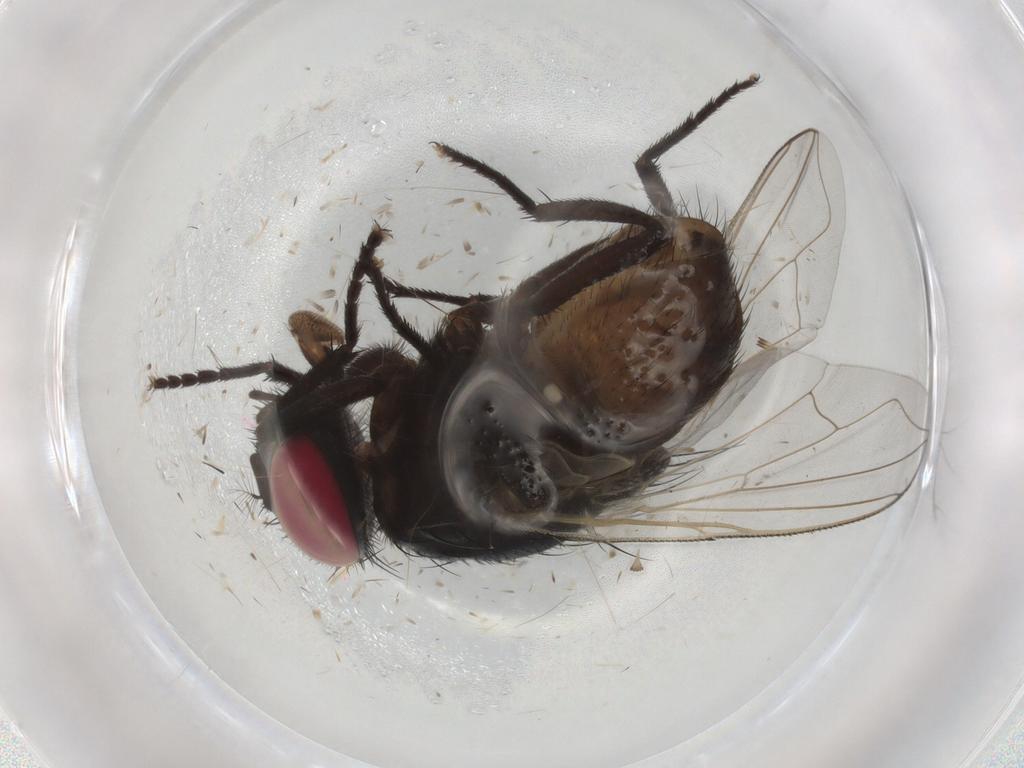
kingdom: Animalia
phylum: Arthropoda
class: Insecta
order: Diptera
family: Muscidae
